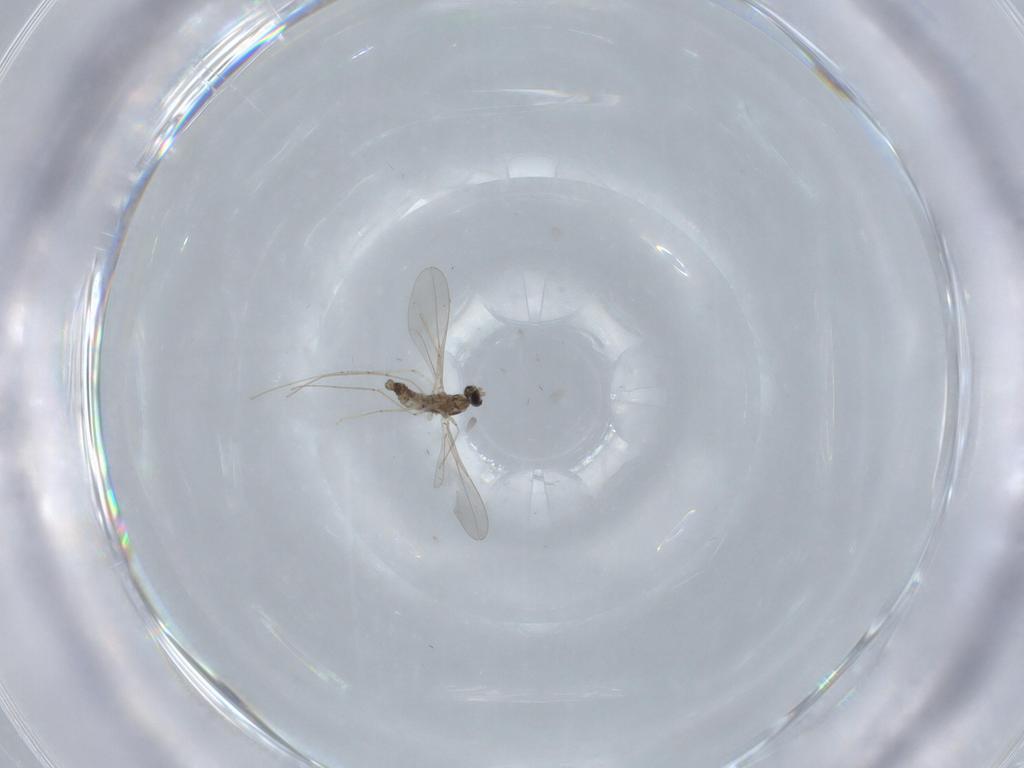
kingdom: Animalia
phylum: Arthropoda
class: Insecta
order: Diptera
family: Cecidomyiidae
